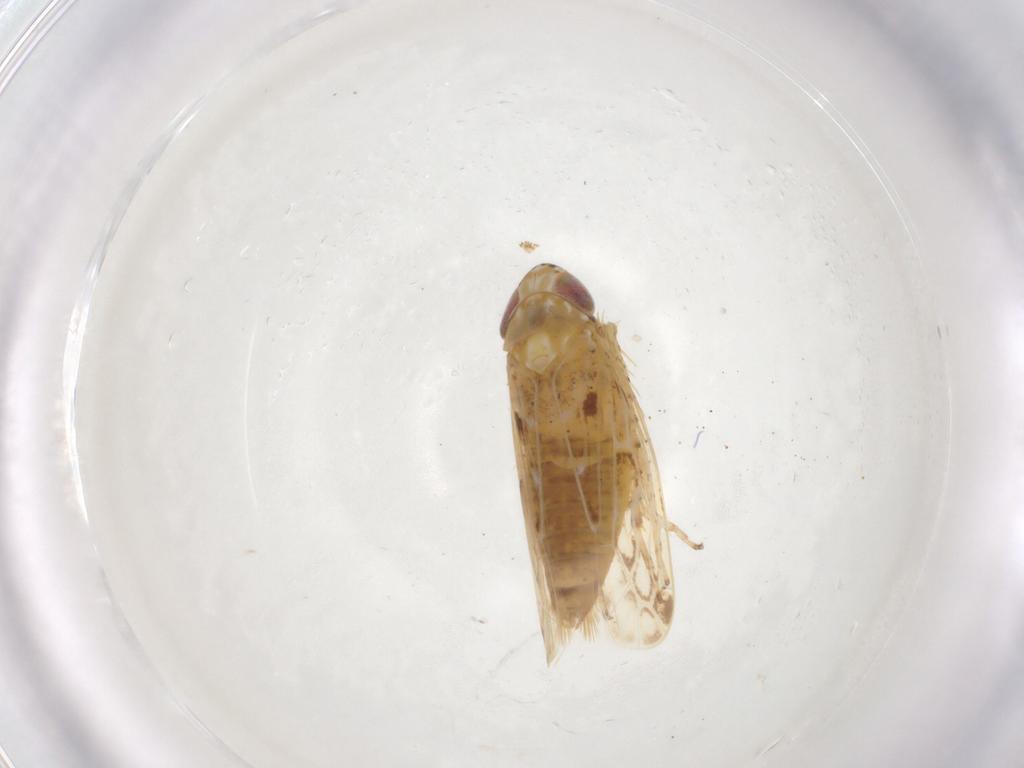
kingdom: Animalia
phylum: Arthropoda
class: Insecta
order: Hemiptera
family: Cicadellidae
